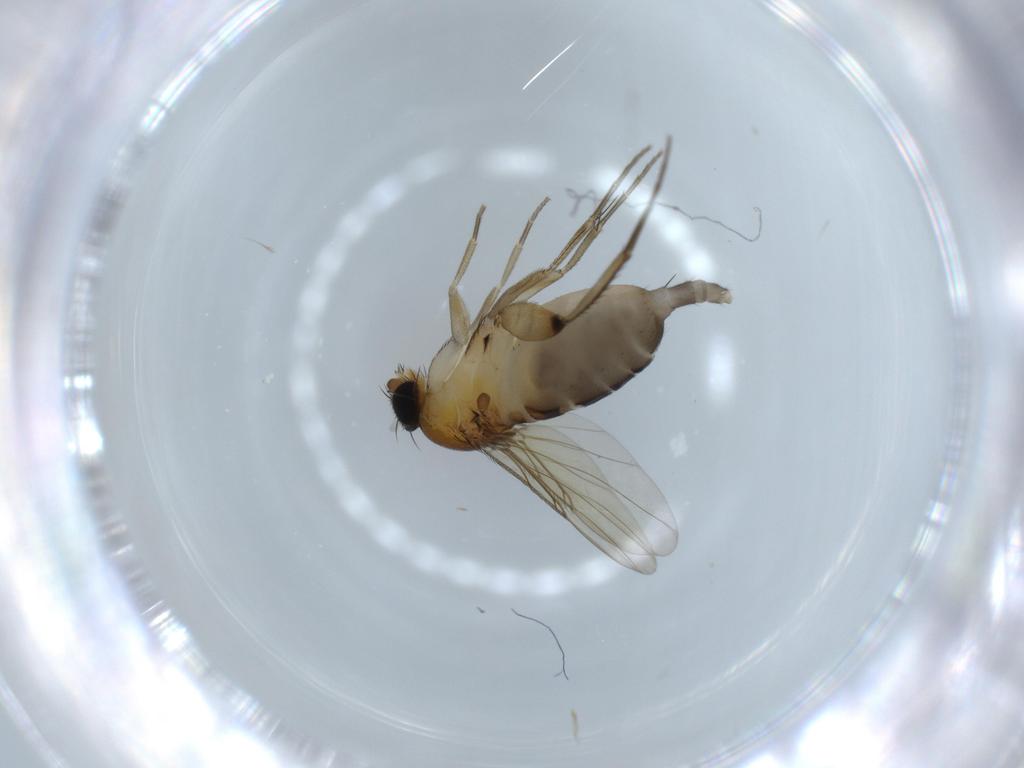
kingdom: Animalia
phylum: Arthropoda
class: Insecta
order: Diptera
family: Phoridae
